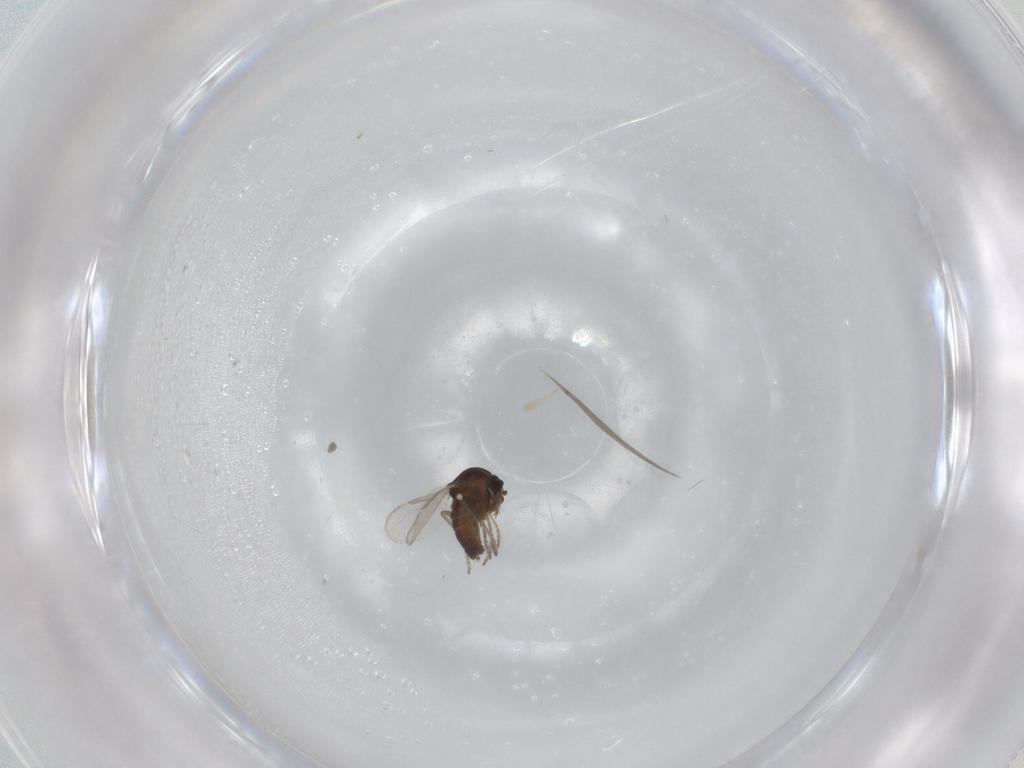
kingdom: Animalia
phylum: Arthropoda
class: Insecta
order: Diptera
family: Ceratopogonidae
